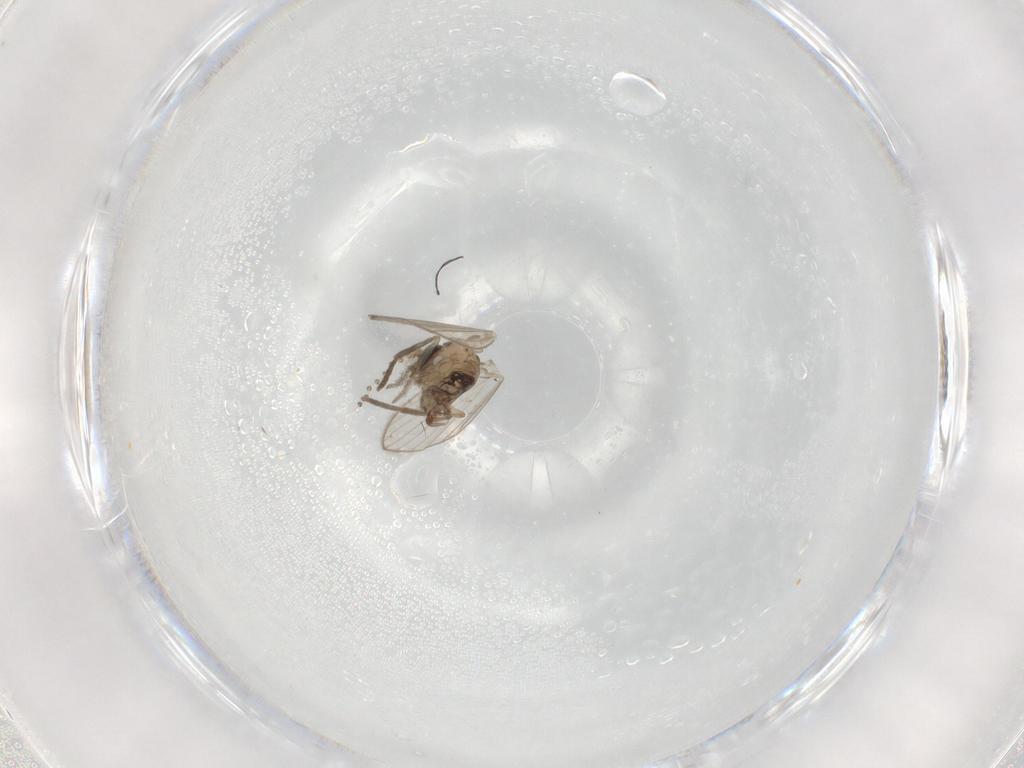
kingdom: Animalia
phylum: Arthropoda
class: Insecta
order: Diptera
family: Psychodidae
